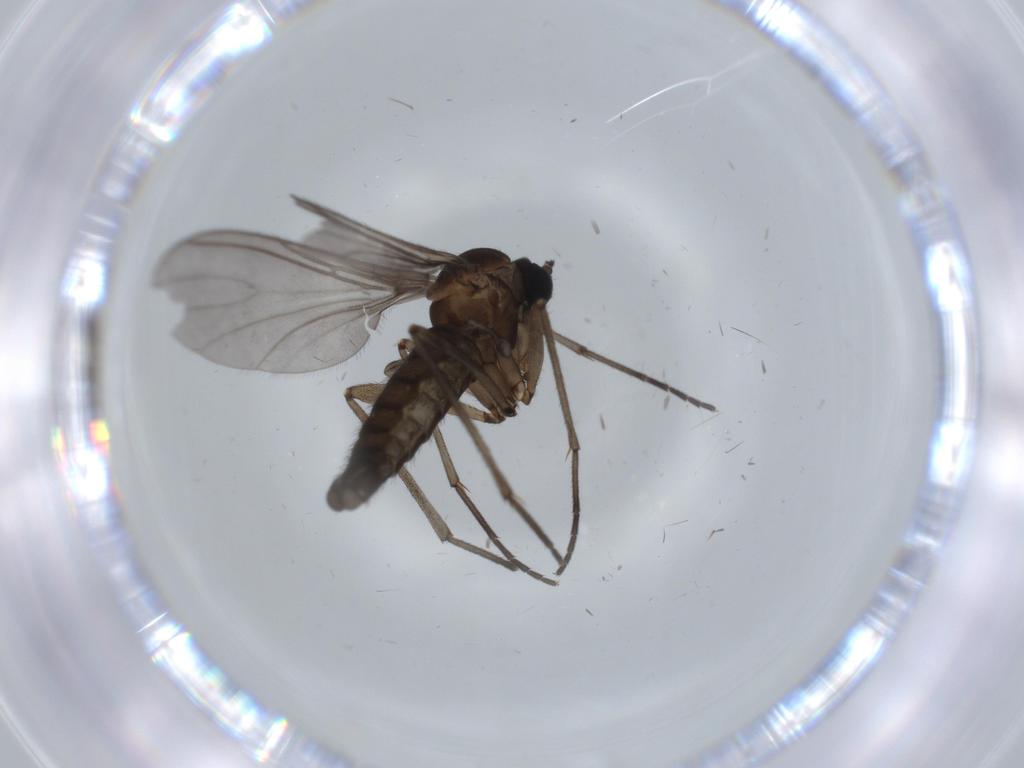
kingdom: Animalia
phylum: Arthropoda
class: Insecta
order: Diptera
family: Sciaridae
